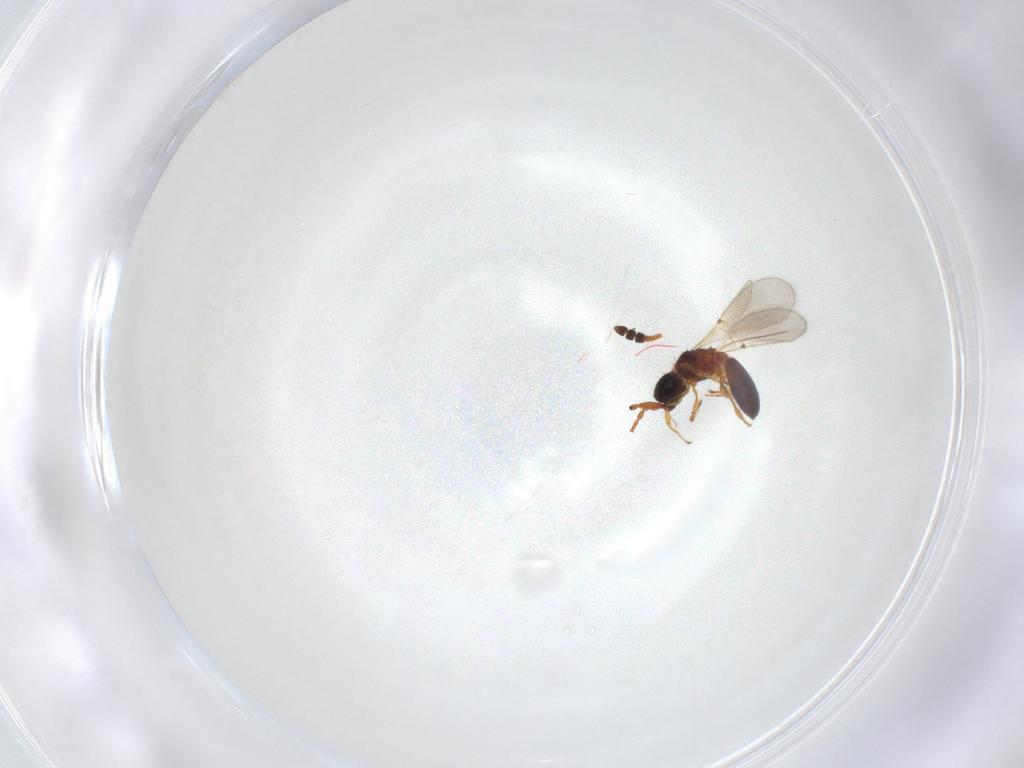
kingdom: Animalia
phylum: Arthropoda
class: Insecta
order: Hymenoptera
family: Diapriidae
